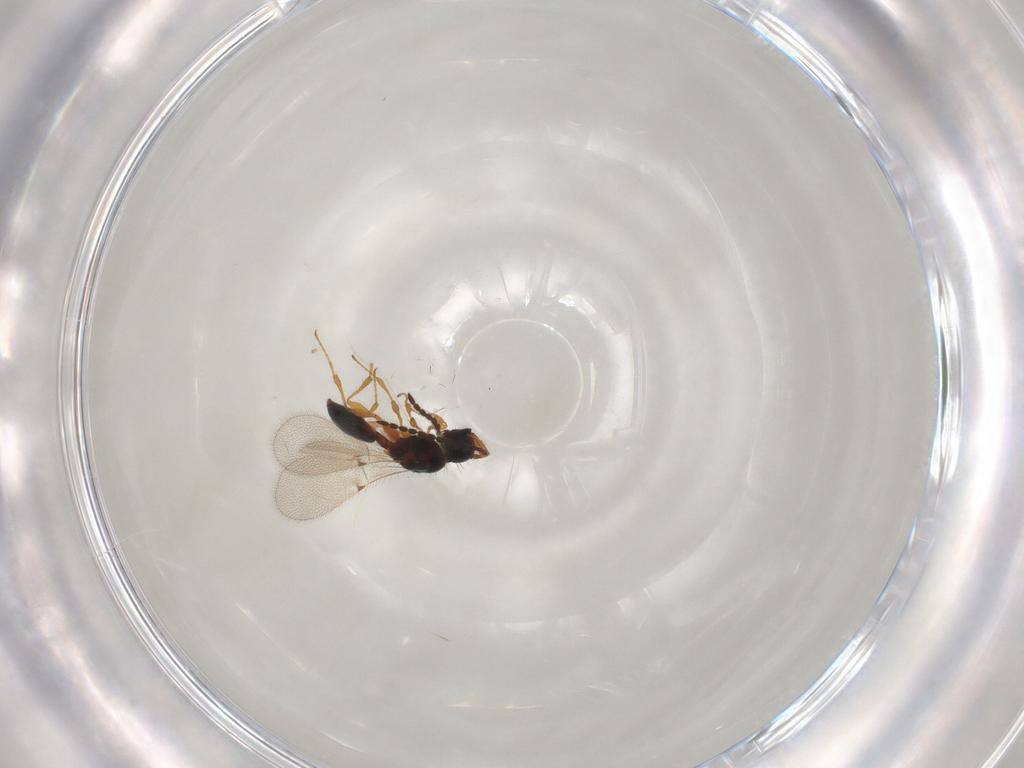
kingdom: Animalia
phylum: Arthropoda
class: Insecta
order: Hymenoptera
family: Diapriidae
